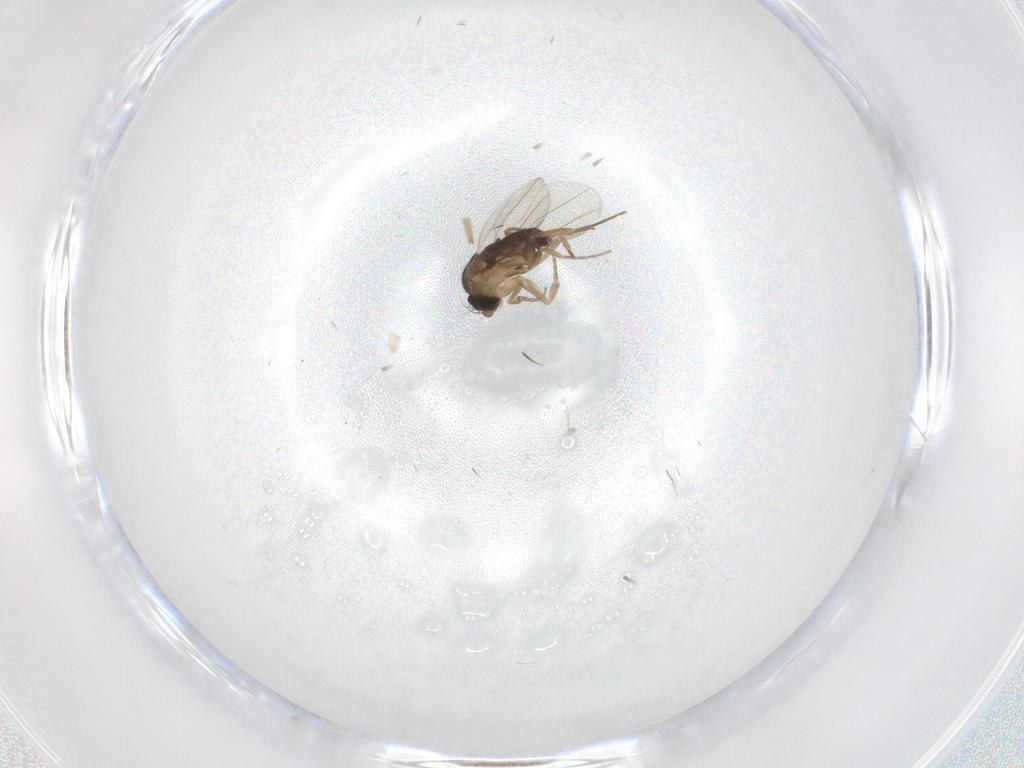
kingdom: Animalia
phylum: Arthropoda
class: Insecta
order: Diptera
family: Phoridae
